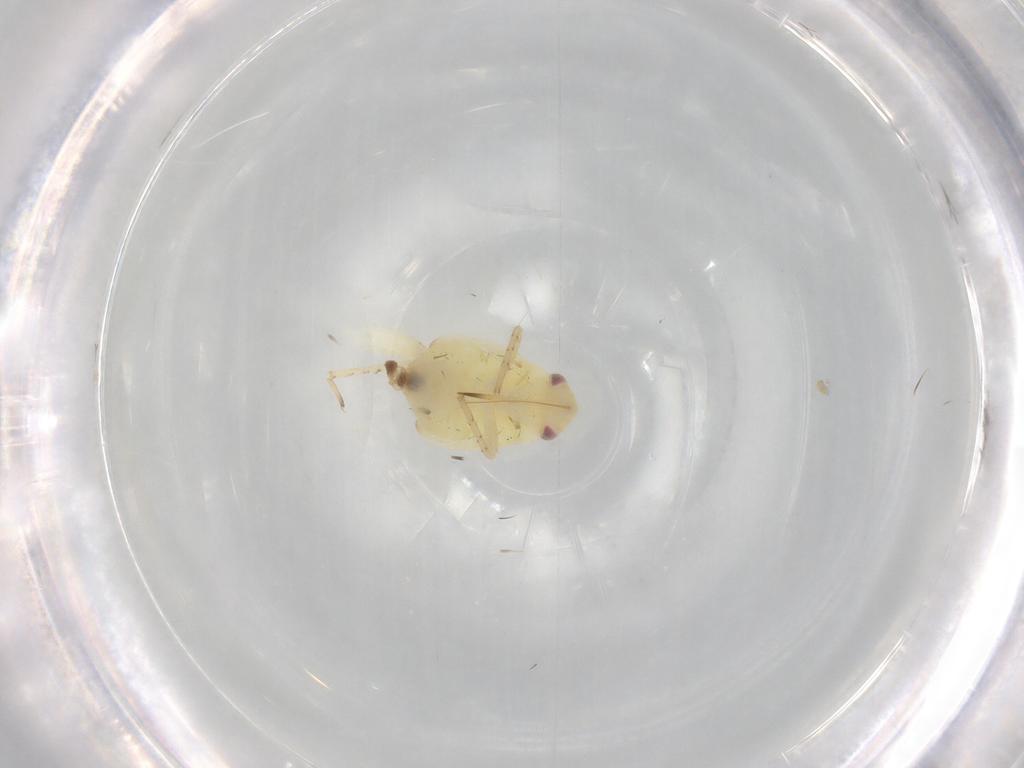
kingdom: Animalia
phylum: Arthropoda
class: Insecta
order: Hemiptera
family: Miridae
